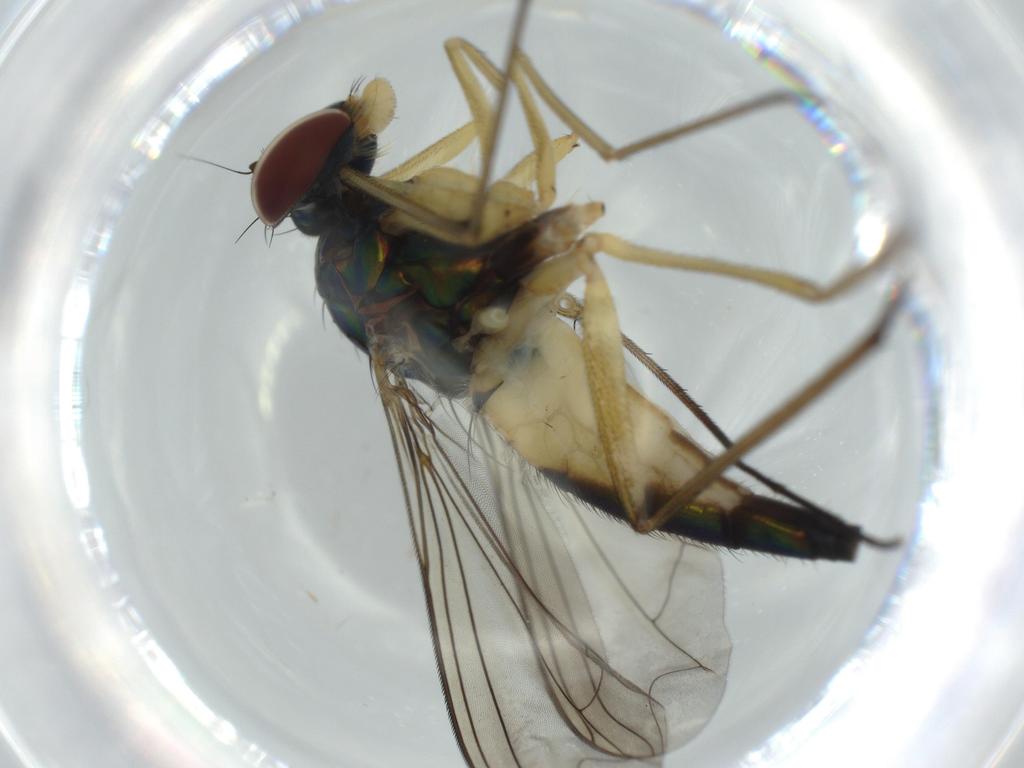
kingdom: Animalia
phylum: Arthropoda
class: Insecta
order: Diptera
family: Dolichopodidae
